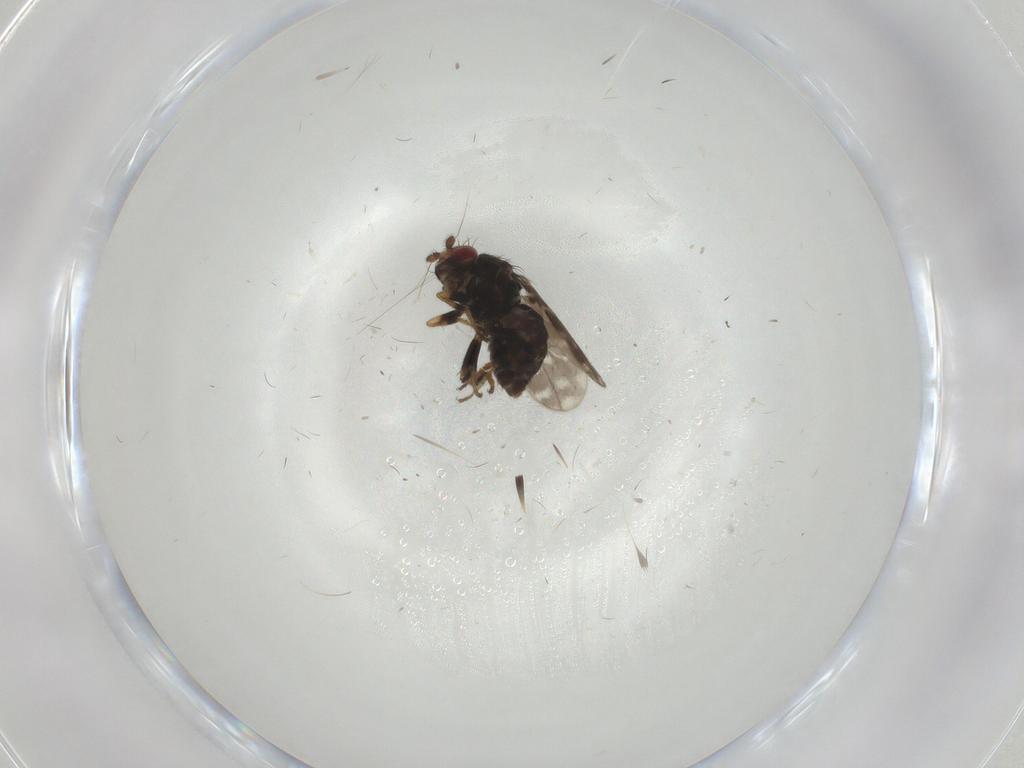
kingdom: Animalia
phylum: Arthropoda
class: Insecta
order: Diptera
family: Sphaeroceridae
